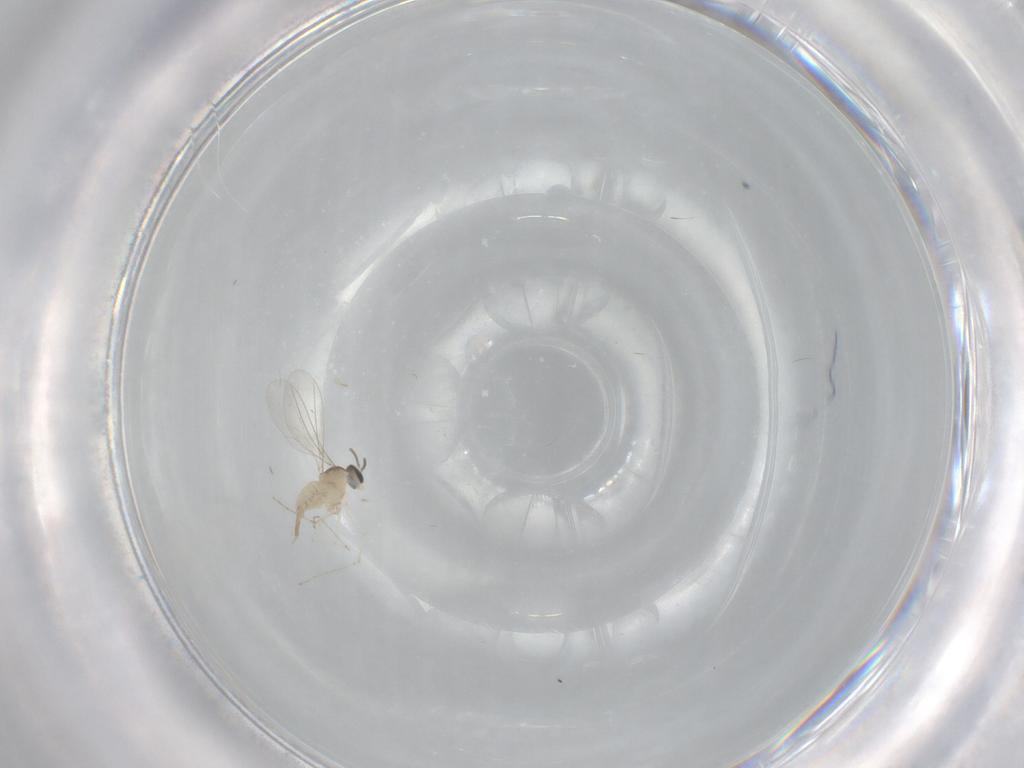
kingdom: Animalia
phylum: Arthropoda
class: Insecta
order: Diptera
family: Cecidomyiidae
